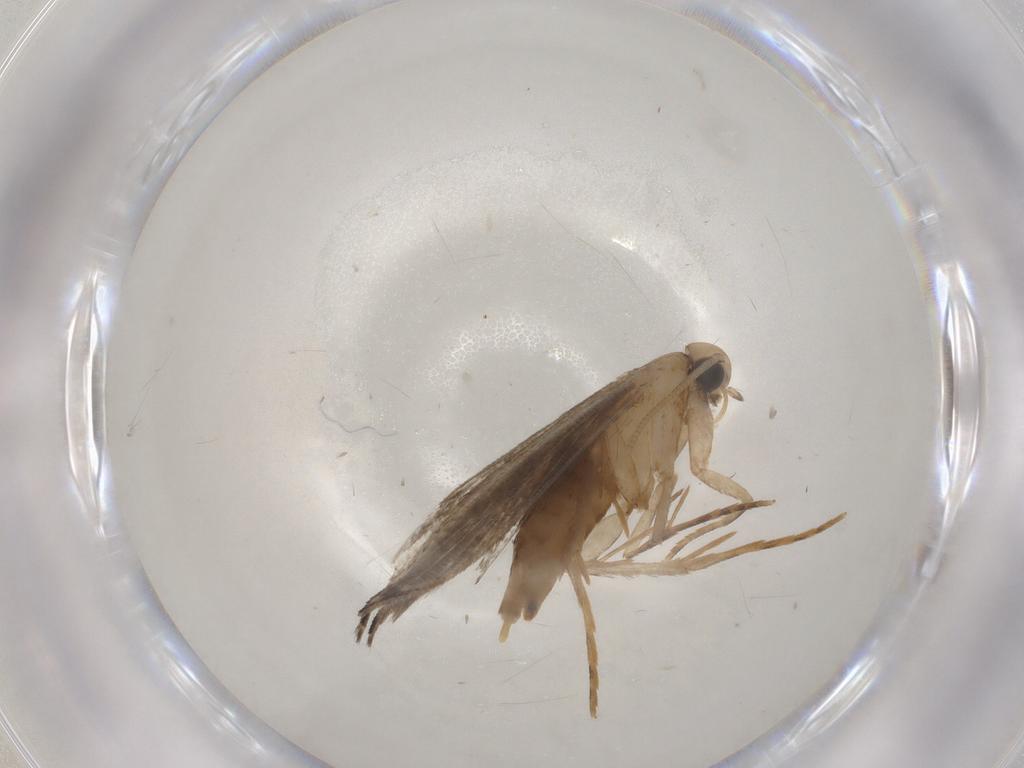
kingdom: Animalia
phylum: Arthropoda
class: Insecta
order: Lepidoptera
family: Tineidae
